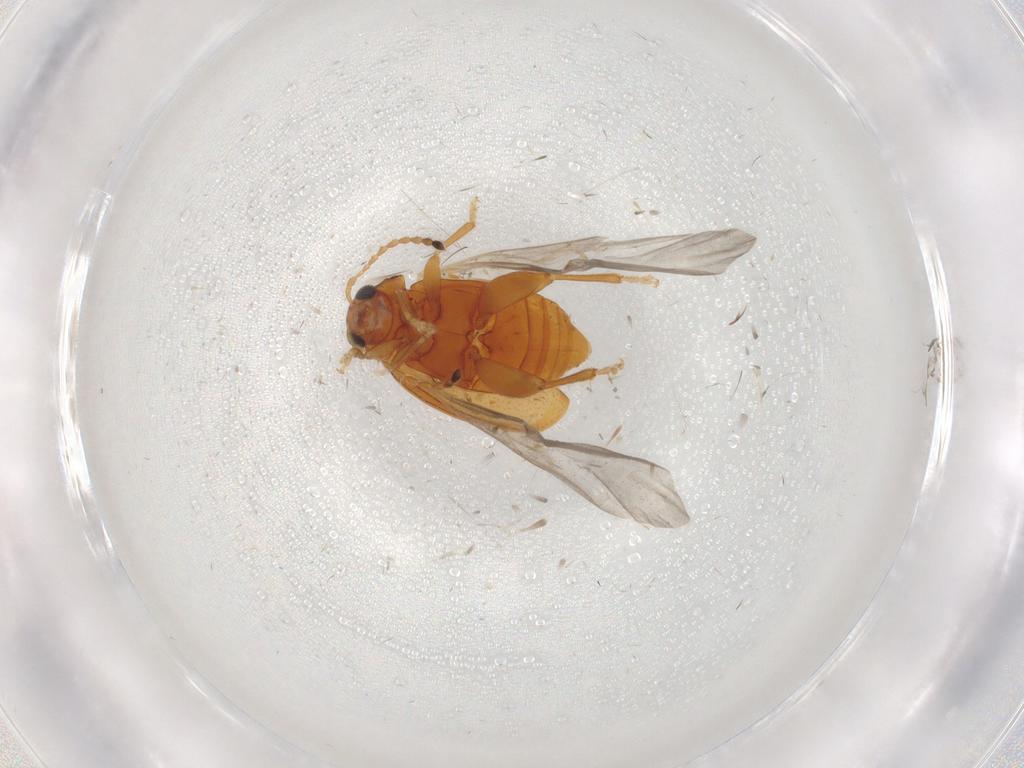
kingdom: Animalia
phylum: Arthropoda
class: Insecta
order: Coleoptera
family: Chrysomelidae
